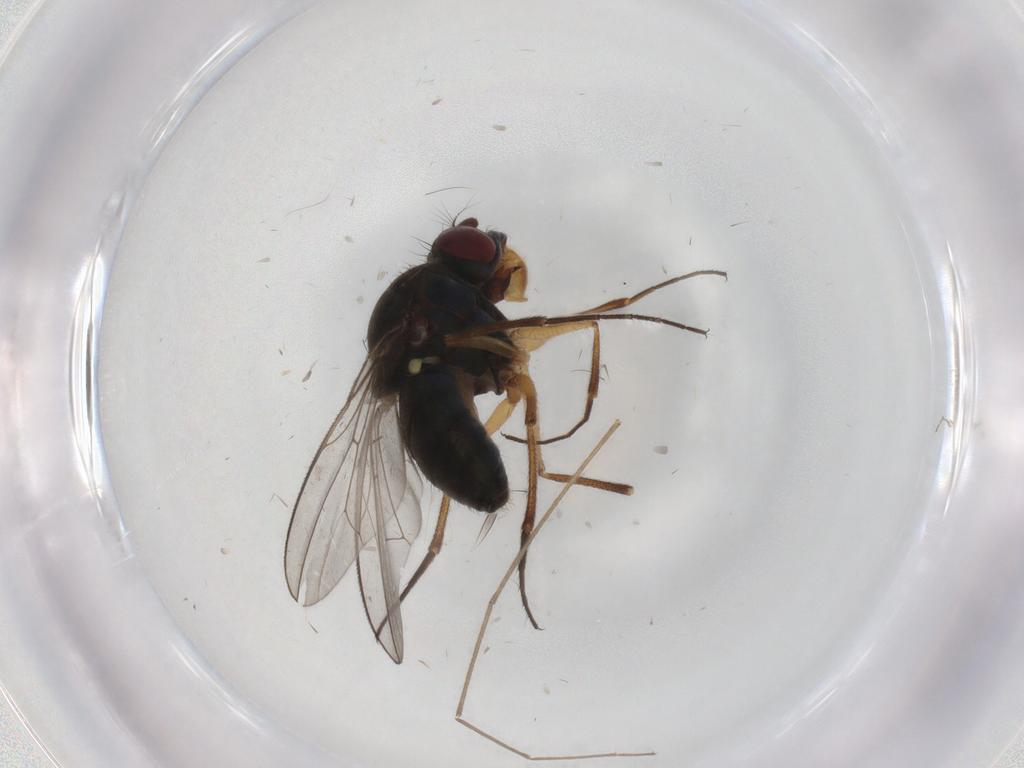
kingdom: Animalia
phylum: Arthropoda
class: Insecta
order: Diptera
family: Ephydridae
